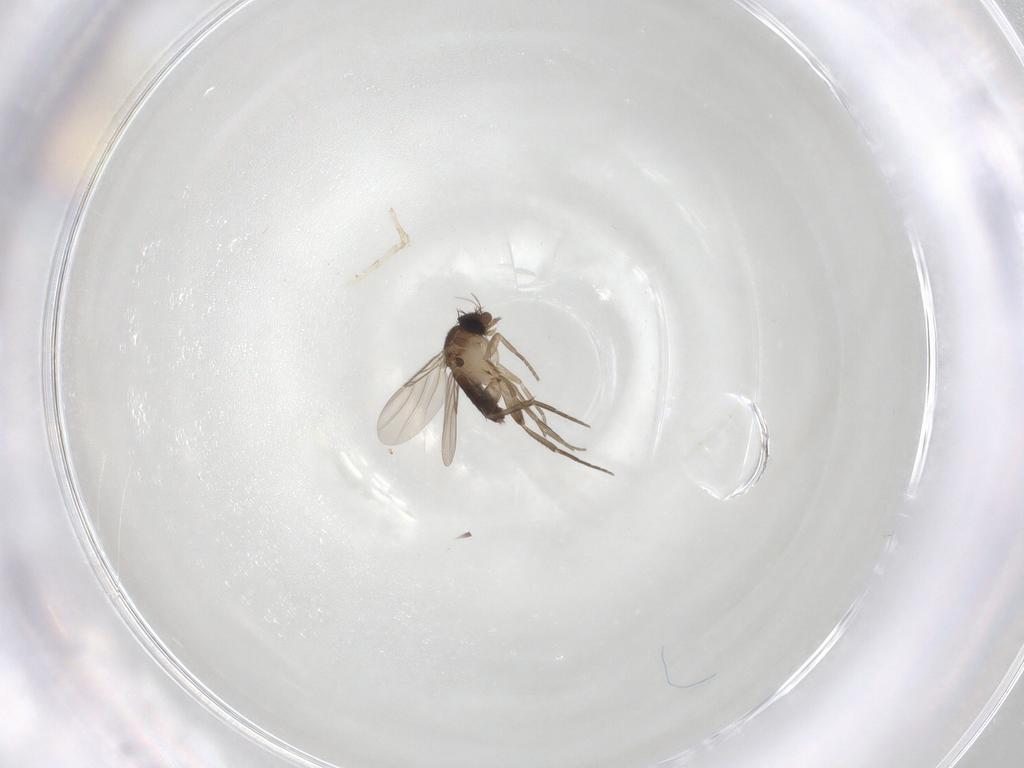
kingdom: Animalia
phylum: Arthropoda
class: Insecta
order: Diptera
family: Phoridae
